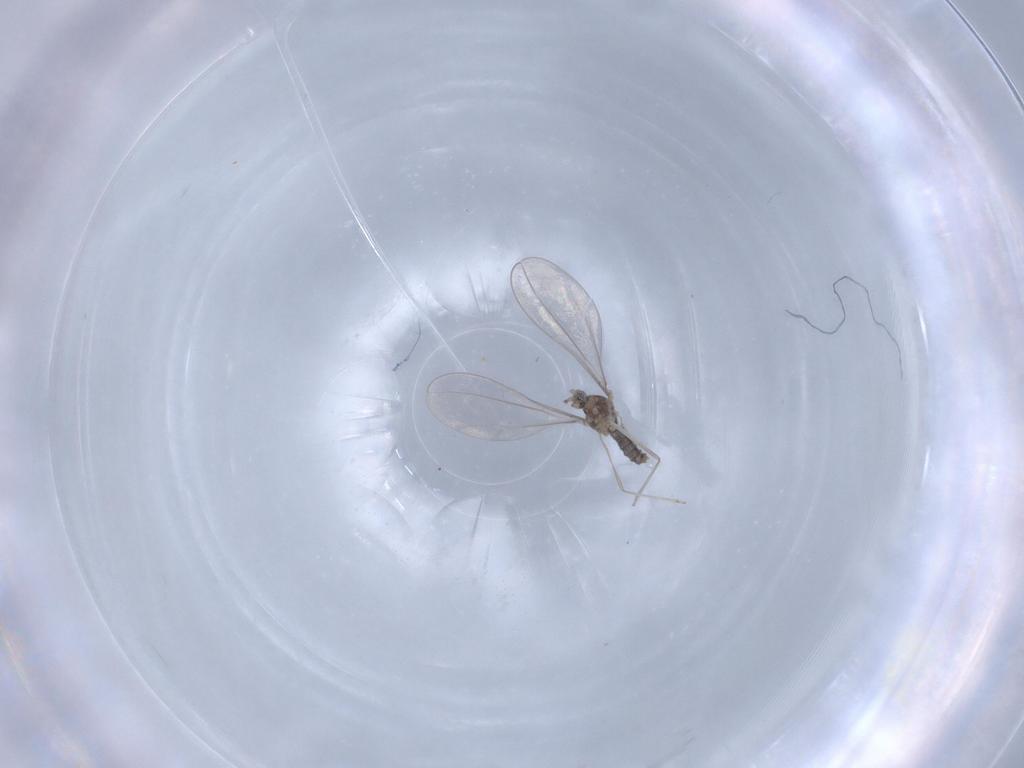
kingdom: Animalia
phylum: Arthropoda
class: Insecta
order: Diptera
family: Cecidomyiidae
